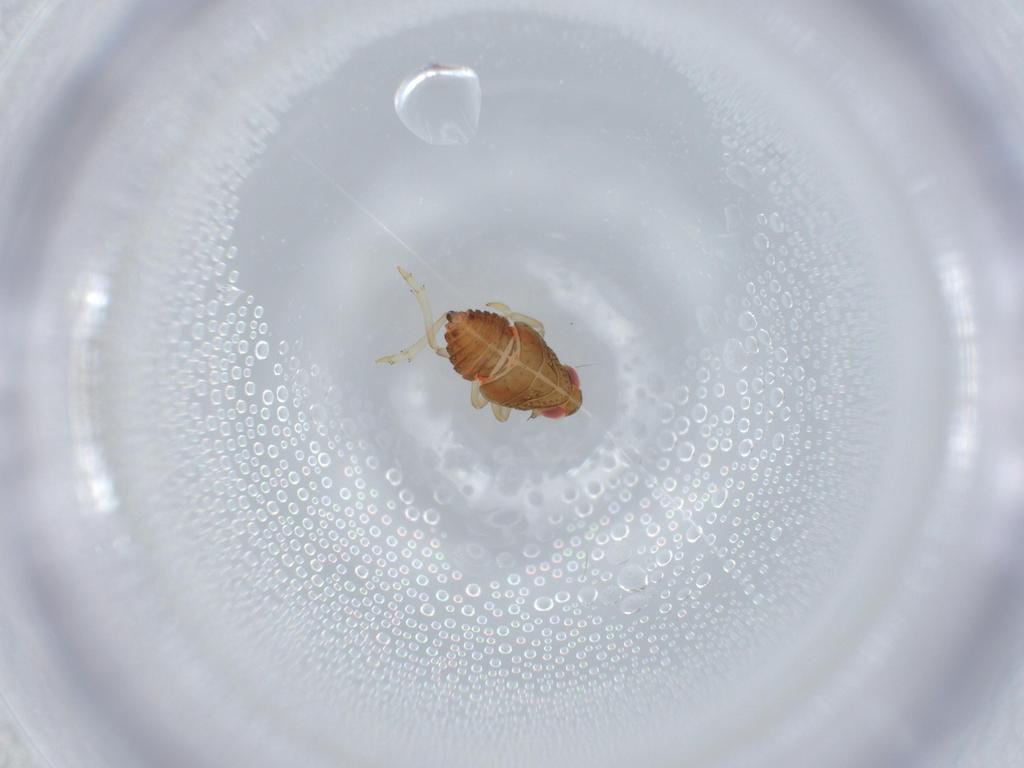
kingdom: Animalia
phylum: Arthropoda
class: Insecta
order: Hemiptera
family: Issidae
